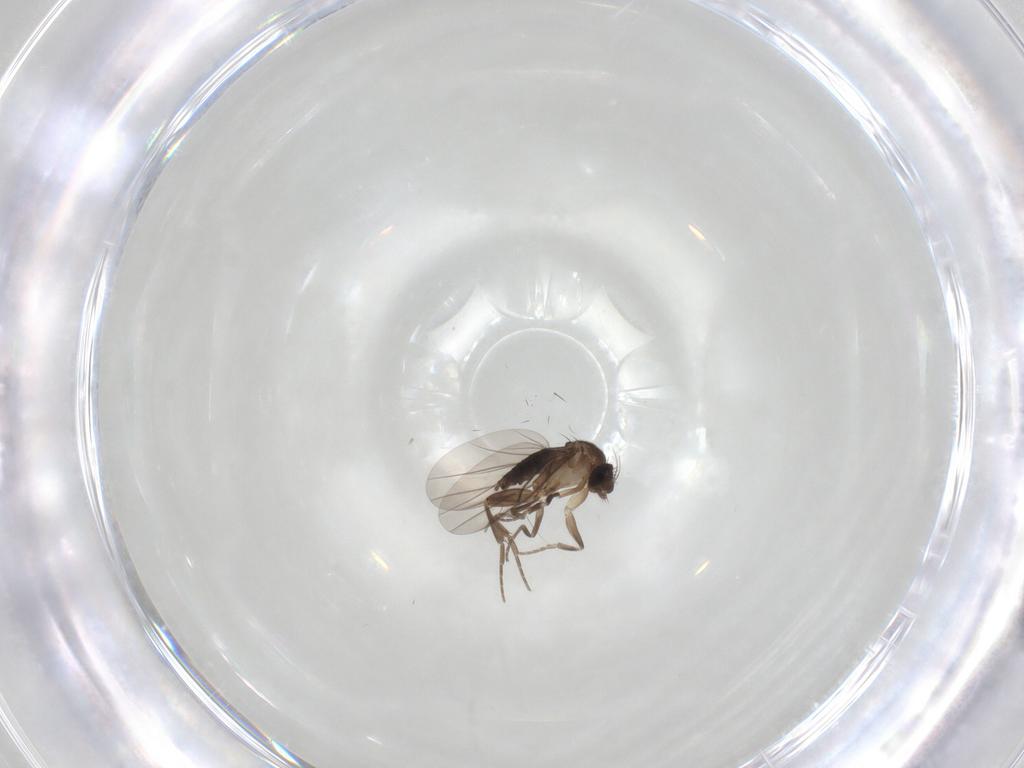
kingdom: Animalia
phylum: Arthropoda
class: Insecta
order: Diptera
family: Phoridae
